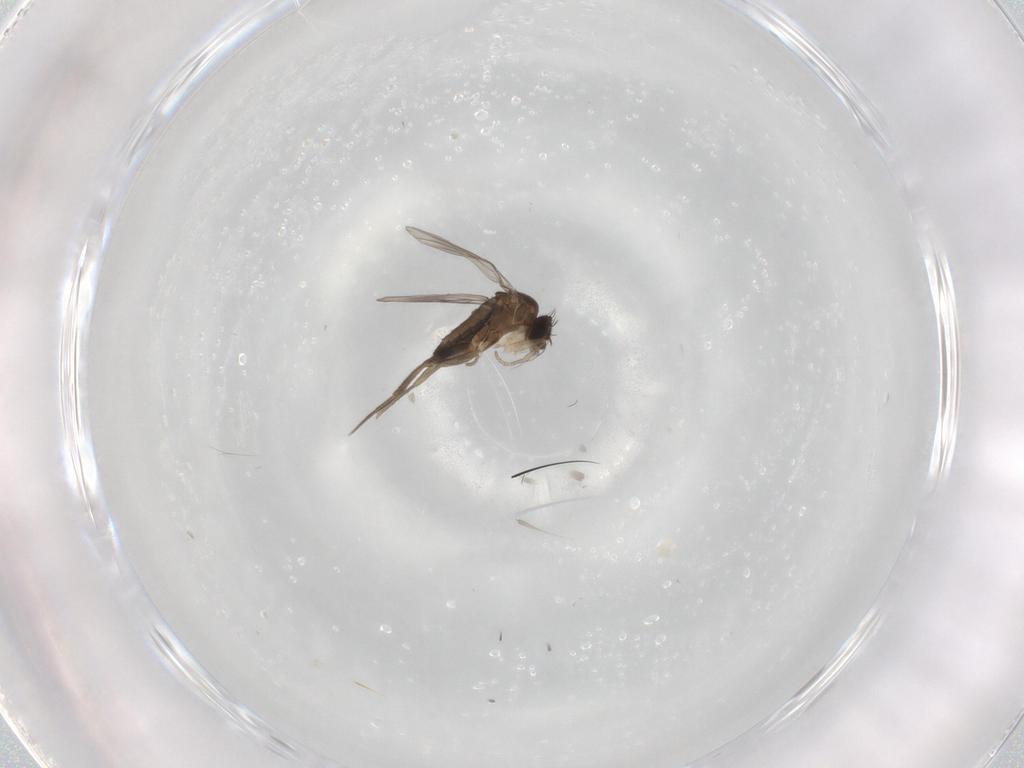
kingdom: Animalia
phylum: Arthropoda
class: Insecta
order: Diptera
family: Phoridae
